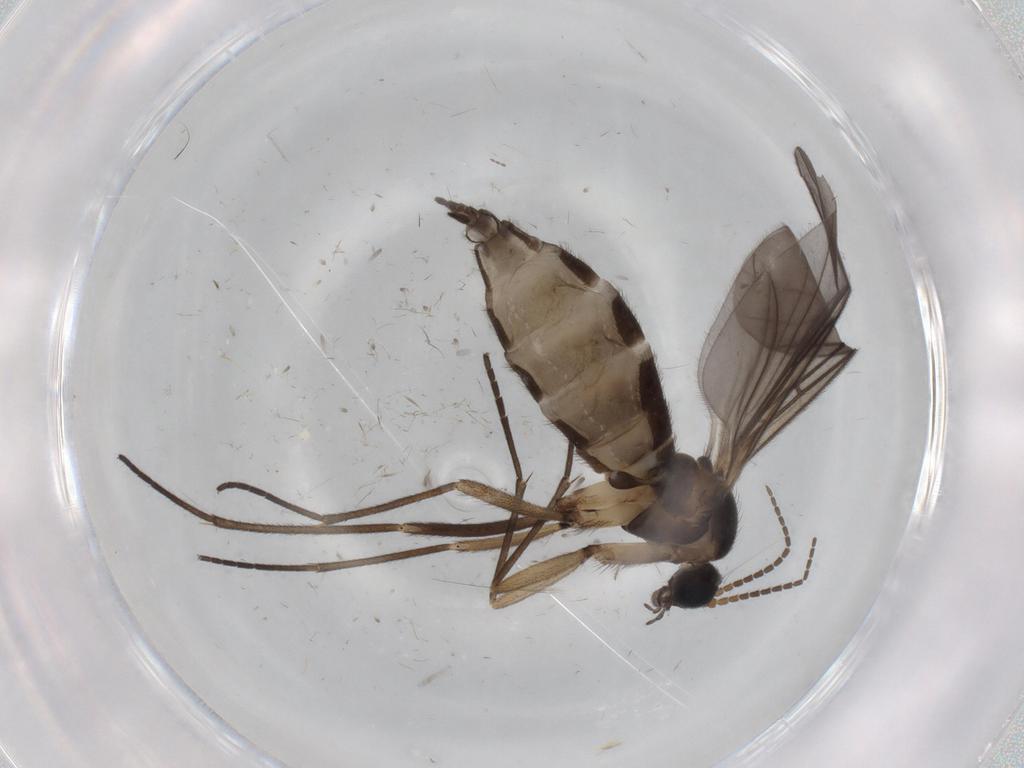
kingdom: Animalia
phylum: Arthropoda
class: Insecta
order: Diptera
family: Sciaridae
